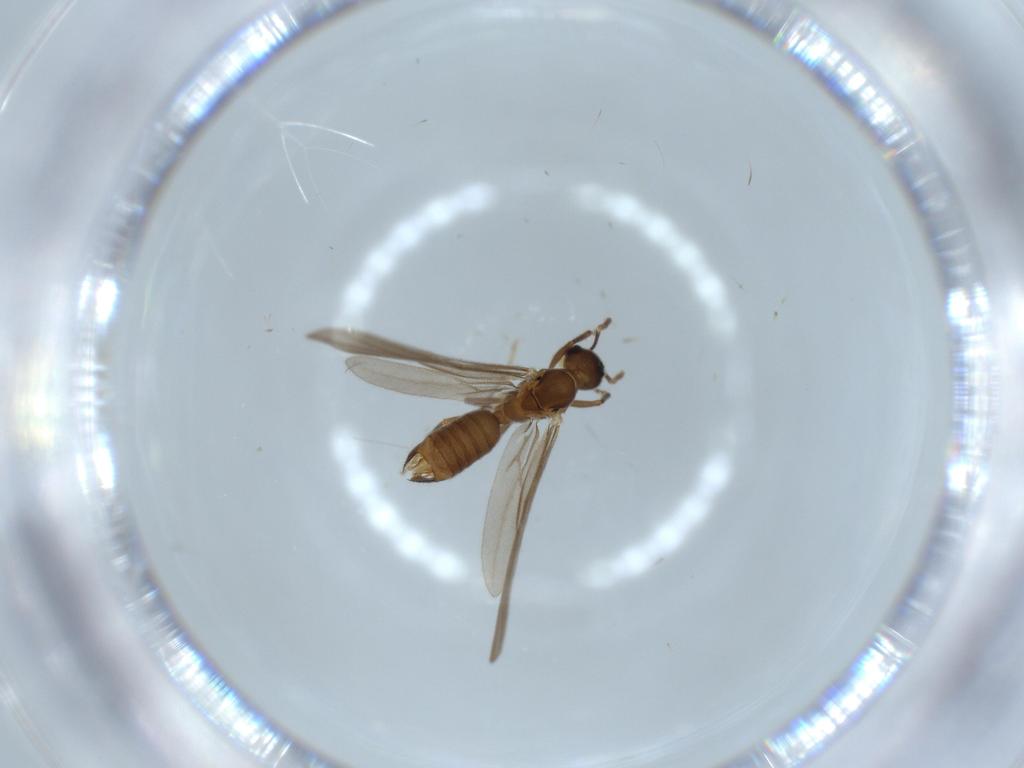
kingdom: Animalia
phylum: Arthropoda
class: Insecta
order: Hymenoptera
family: Formicidae
